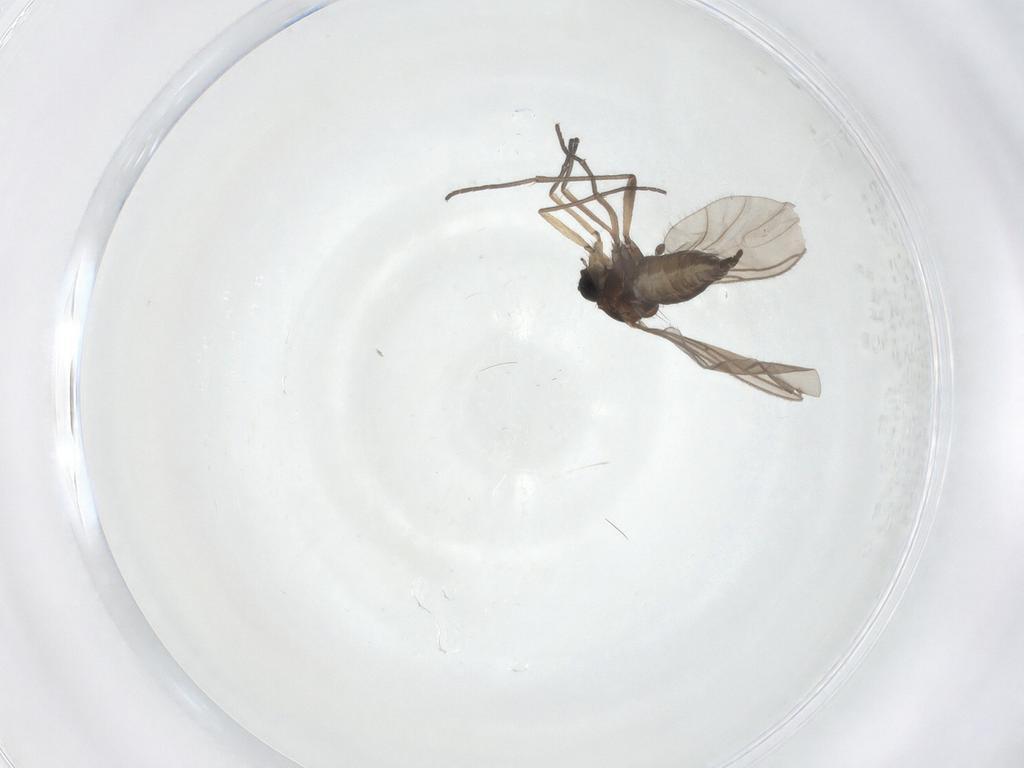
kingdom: Animalia
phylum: Arthropoda
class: Insecta
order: Diptera
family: Sciaridae
